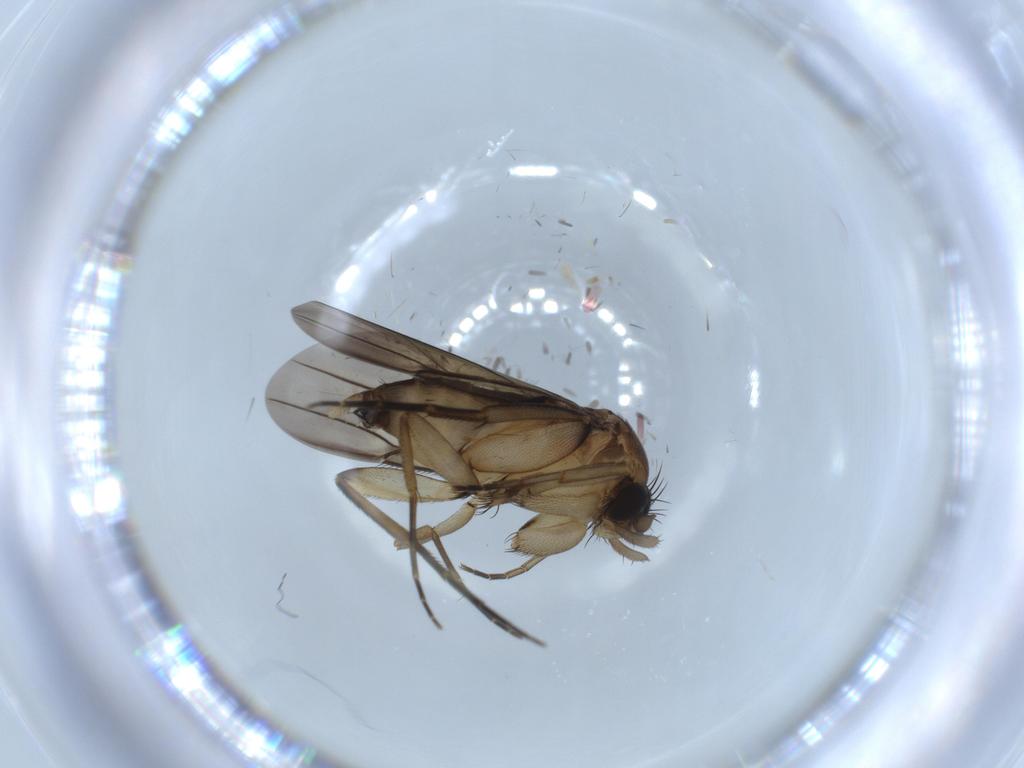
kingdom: Animalia
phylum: Arthropoda
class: Insecta
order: Diptera
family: Phoridae
